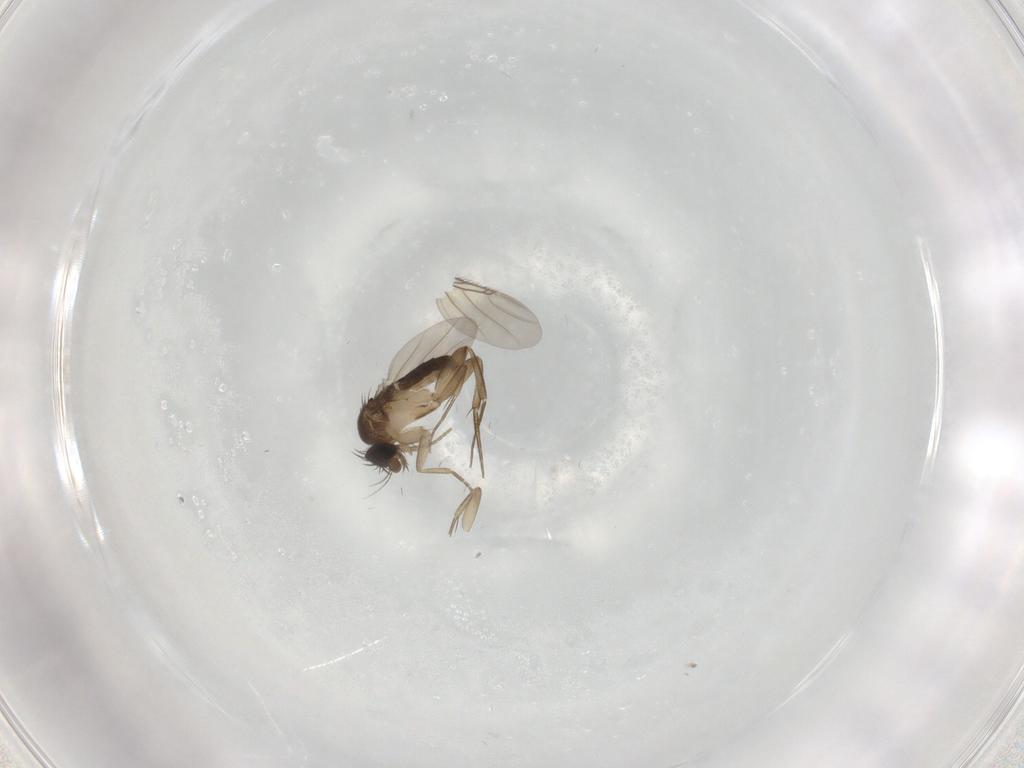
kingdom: Animalia
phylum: Arthropoda
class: Insecta
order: Diptera
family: Phoridae
